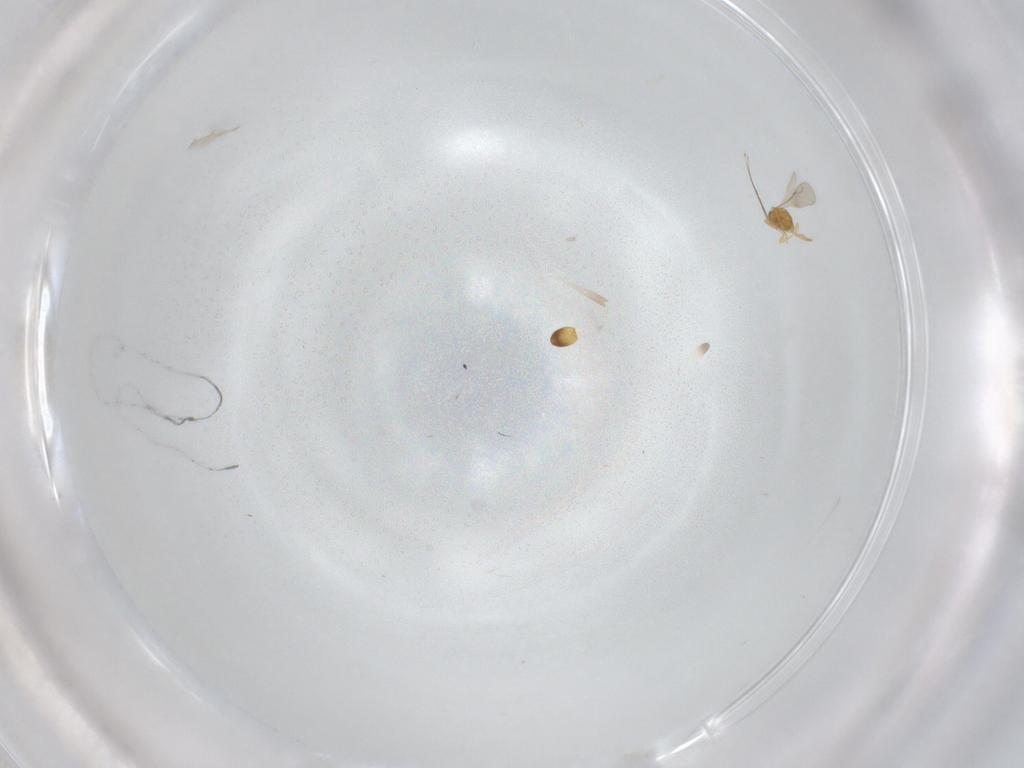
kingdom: Animalia
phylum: Arthropoda
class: Insecta
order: Hymenoptera
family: Ceraphronidae
